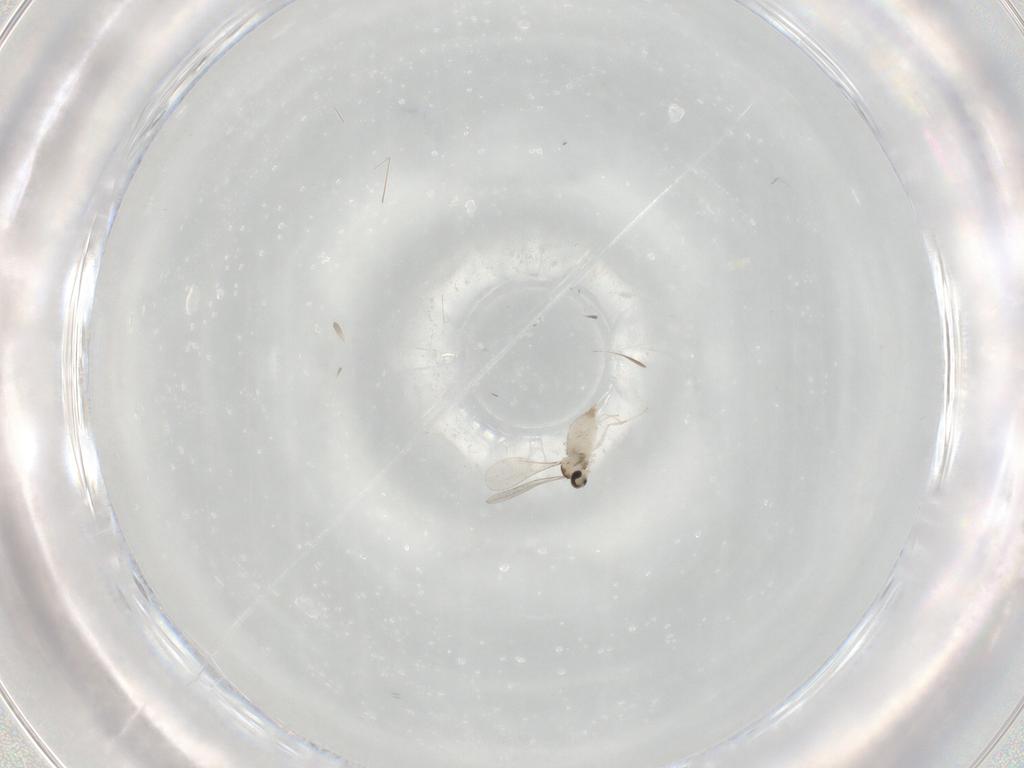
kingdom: Animalia
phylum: Arthropoda
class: Insecta
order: Diptera
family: Cecidomyiidae
